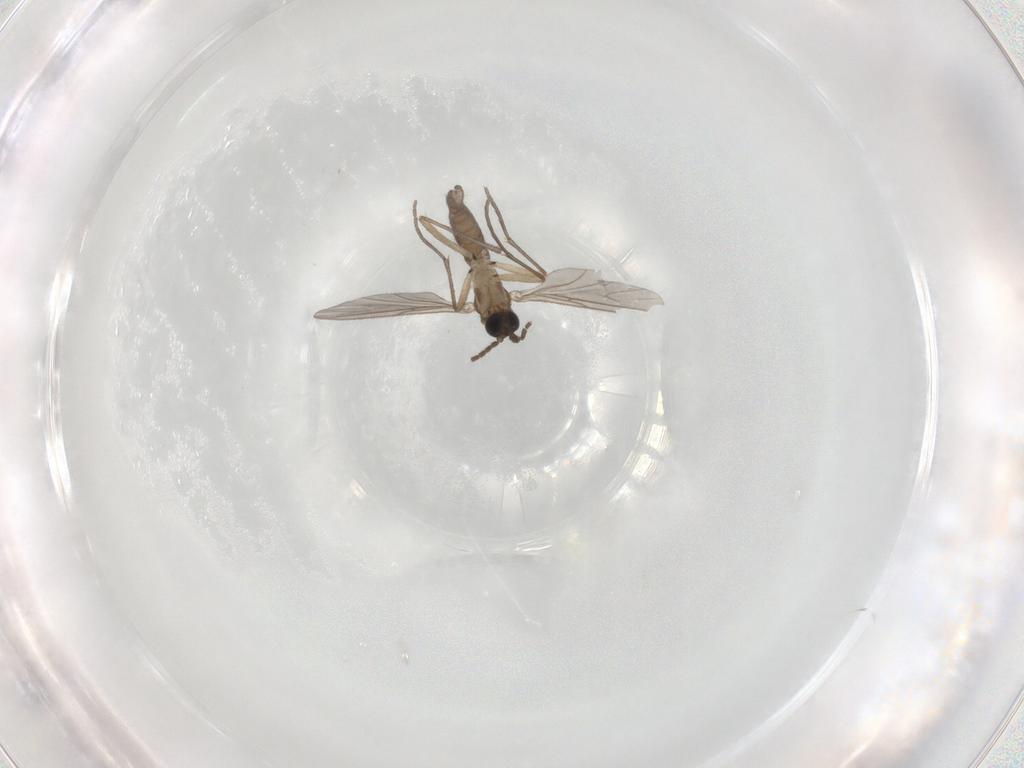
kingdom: Animalia
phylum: Arthropoda
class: Insecta
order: Diptera
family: Sciaridae
